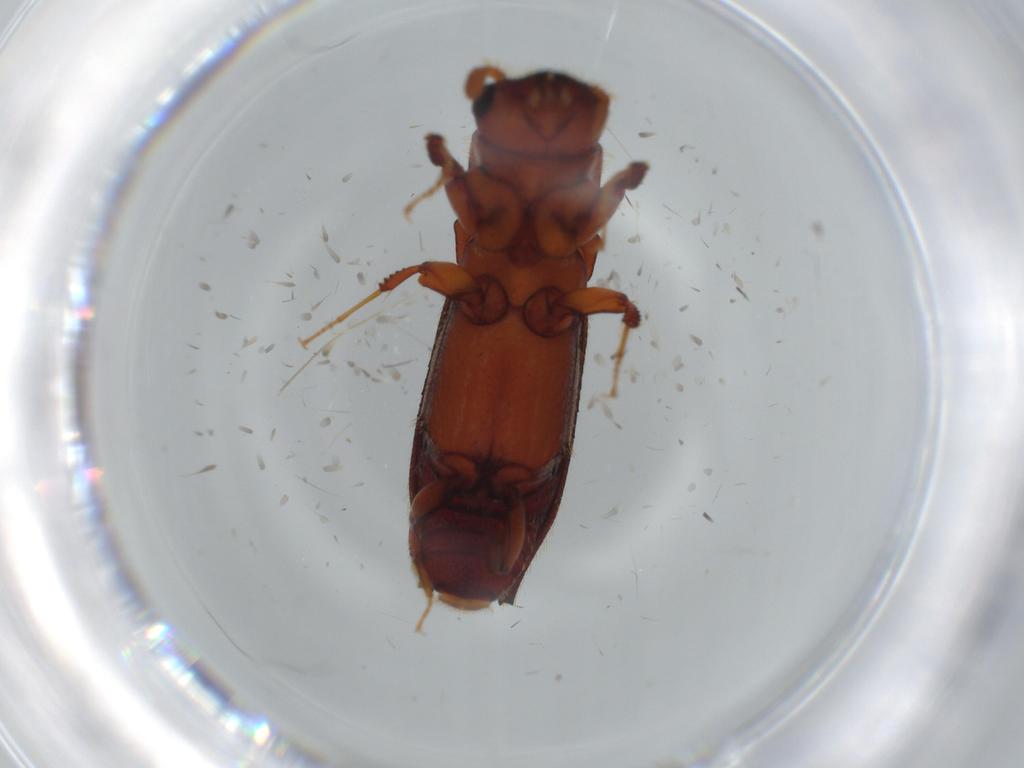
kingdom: Animalia
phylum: Arthropoda
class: Insecta
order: Coleoptera
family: Curculionidae
